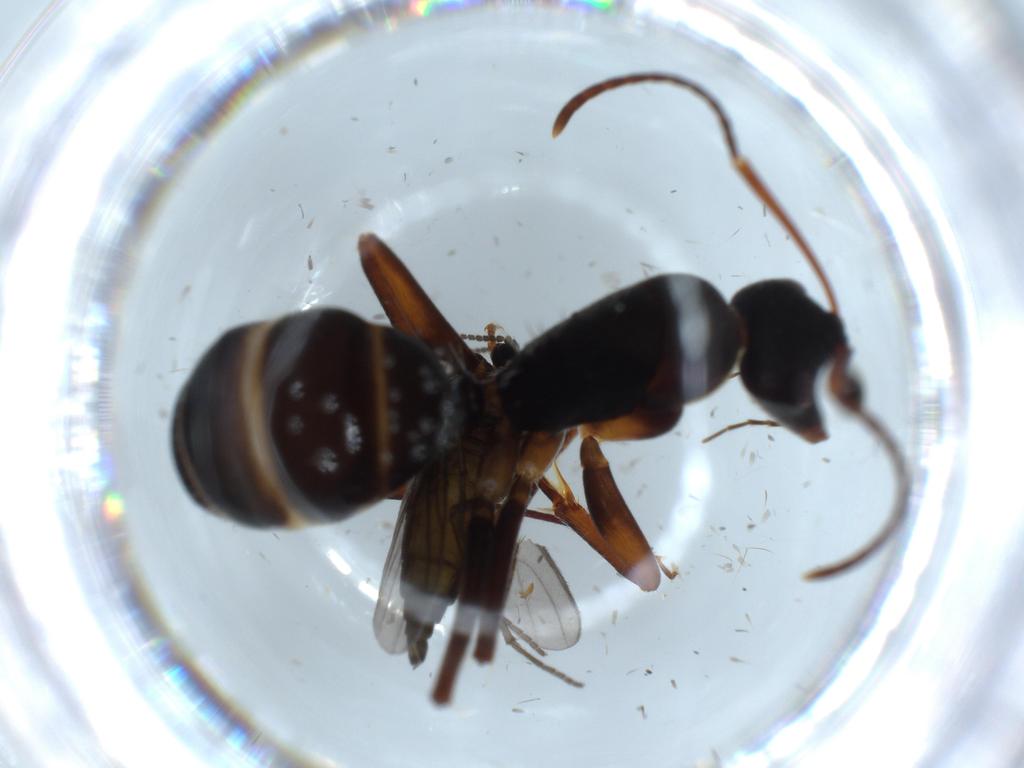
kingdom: Animalia
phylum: Arthropoda
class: Insecta
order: Diptera
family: Sciaridae
